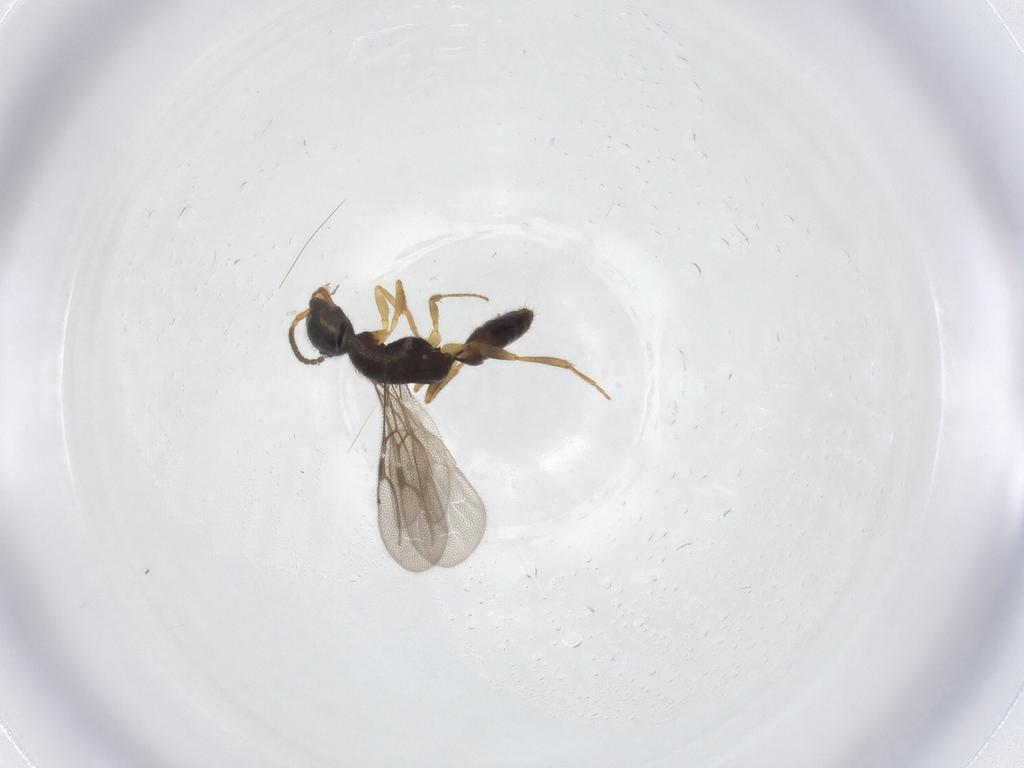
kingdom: Animalia
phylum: Arthropoda
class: Insecta
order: Hymenoptera
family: Bethylidae
